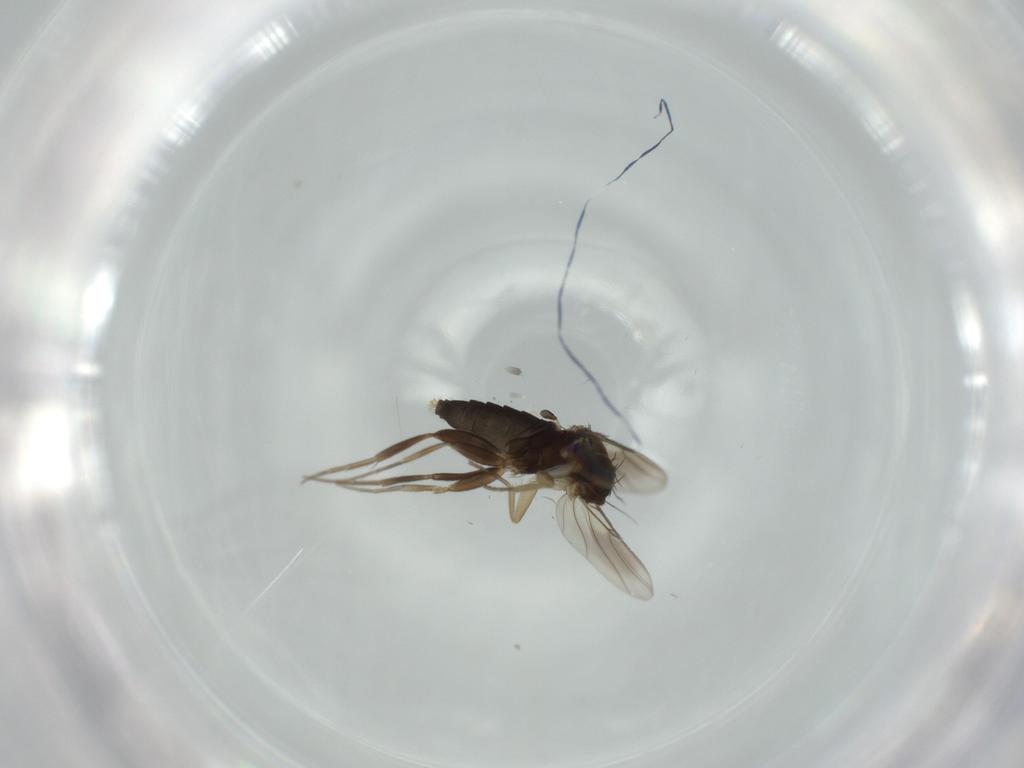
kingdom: Animalia
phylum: Arthropoda
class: Insecta
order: Diptera
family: Phoridae
